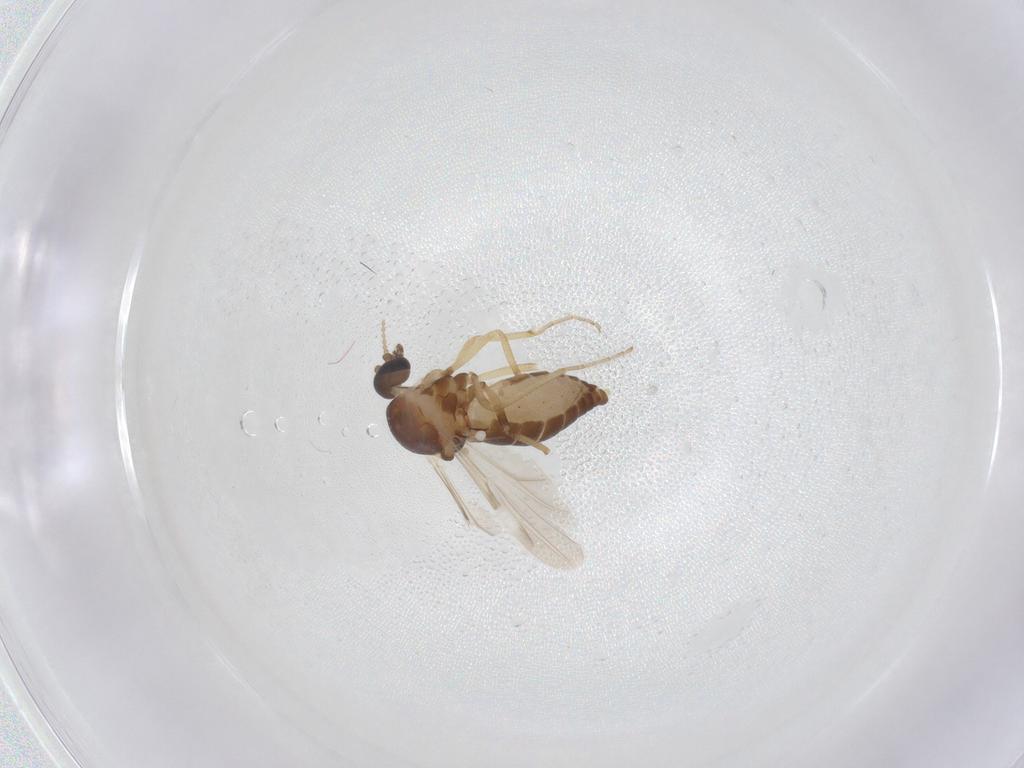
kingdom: Animalia
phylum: Arthropoda
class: Insecta
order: Diptera
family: Ceratopogonidae
